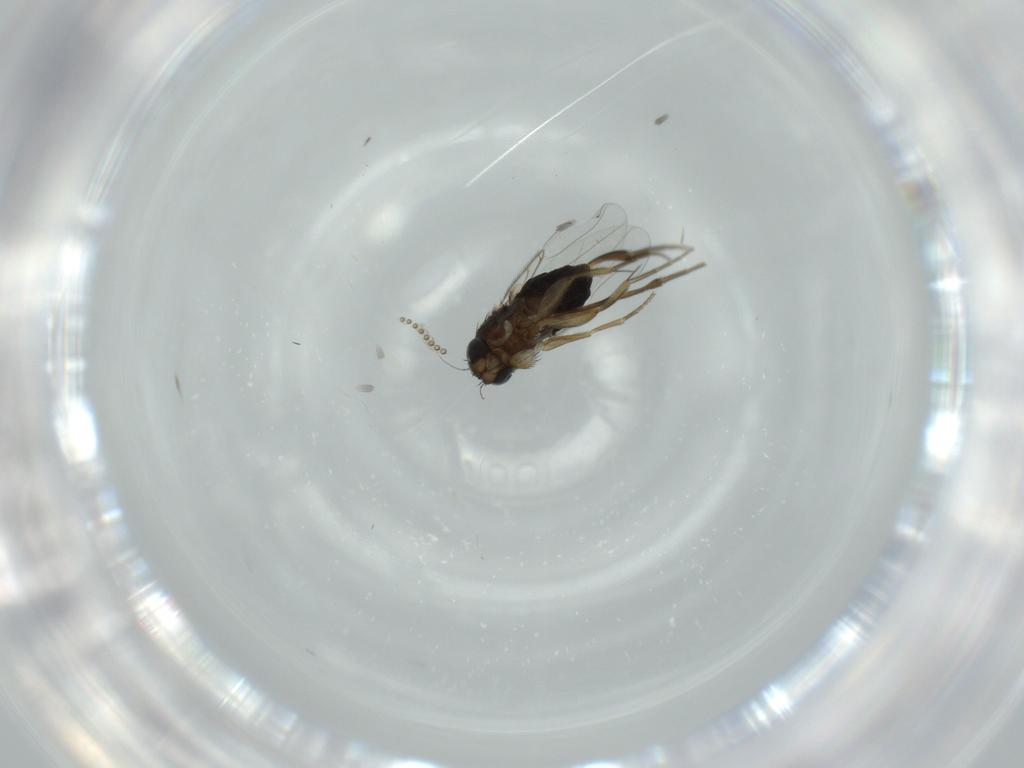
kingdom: Animalia
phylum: Arthropoda
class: Insecta
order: Diptera
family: Phoridae
